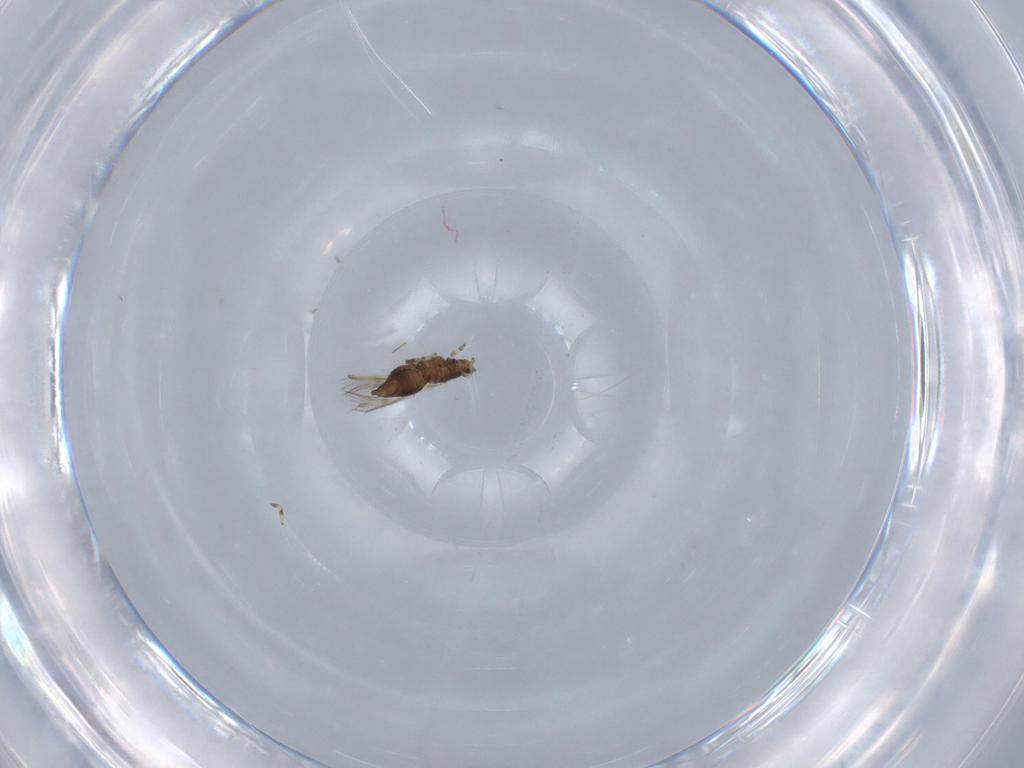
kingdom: Animalia
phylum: Arthropoda
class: Insecta
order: Thysanoptera
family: Thripidae
